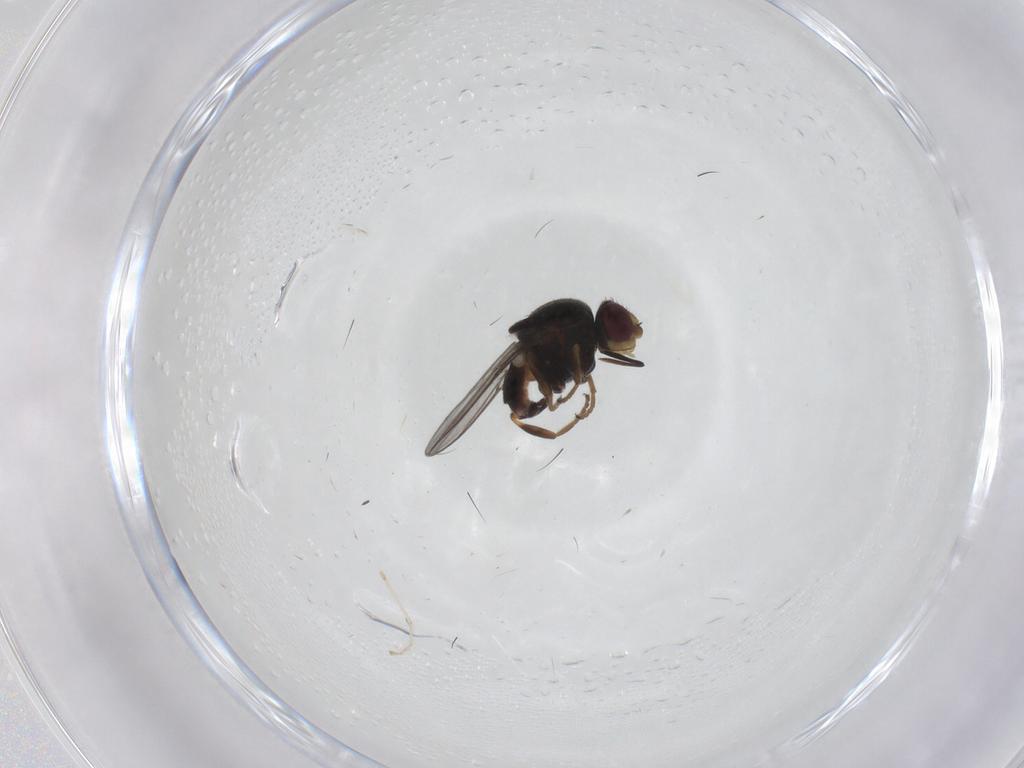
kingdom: Animalia
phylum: Arthropoda
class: Insecta
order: Diptera
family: Chloropidae
